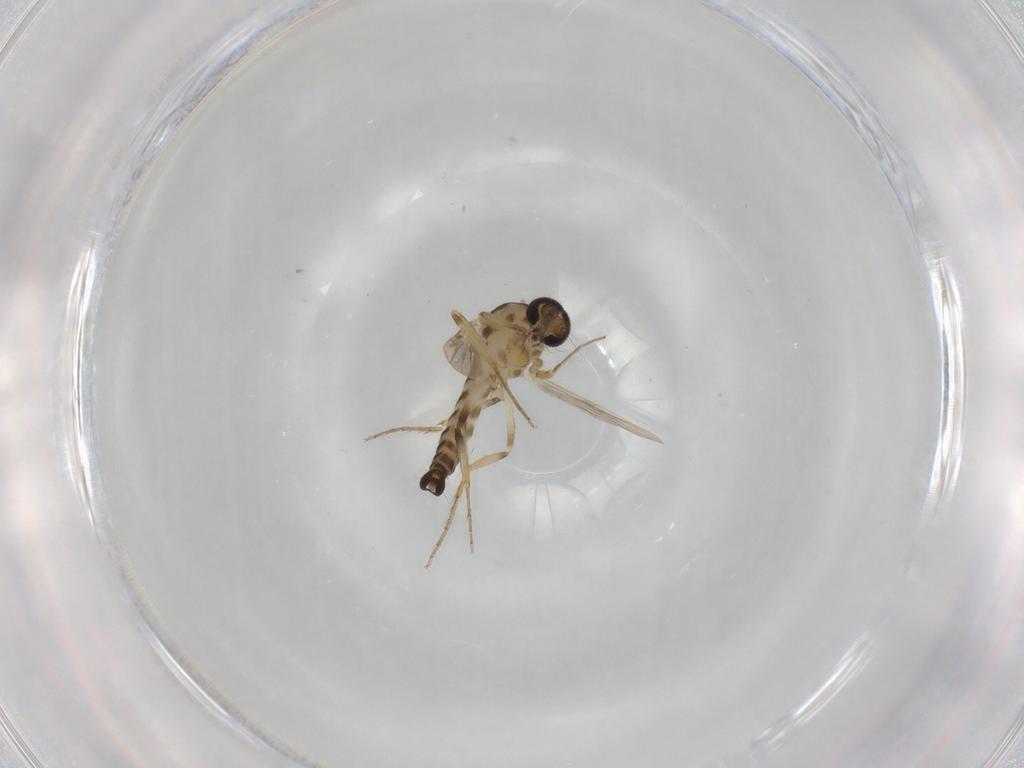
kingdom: Animalia
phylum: Arthropoda
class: Insecta
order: Diptera
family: Ceratopogonidae
